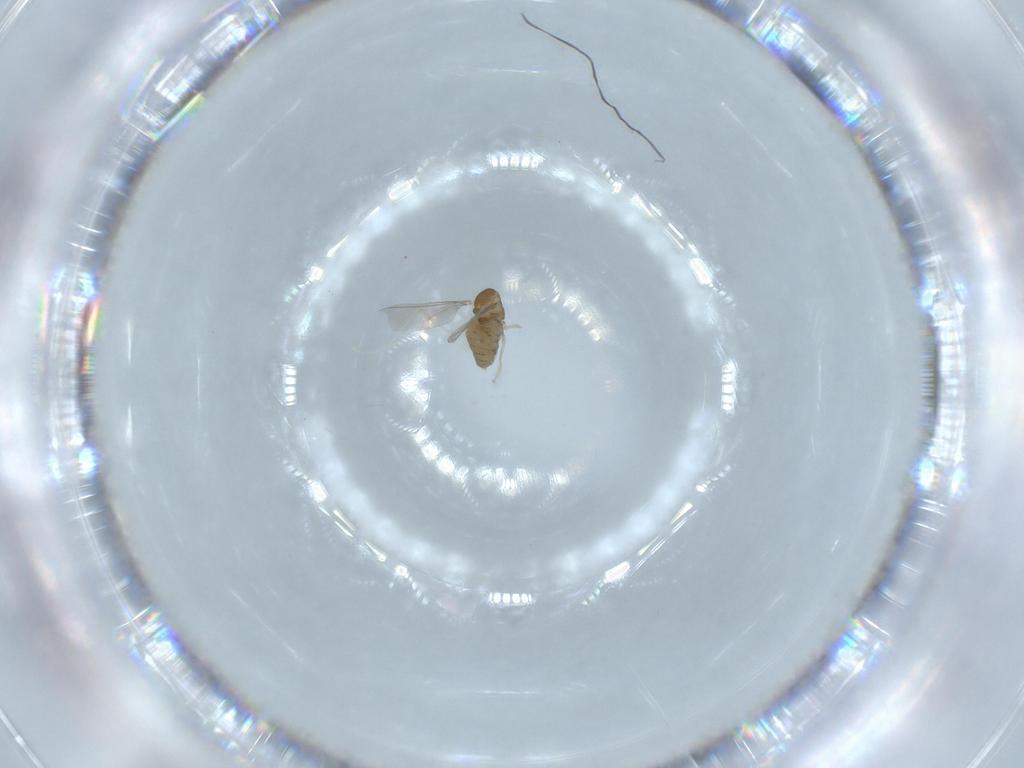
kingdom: Animalia
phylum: Arthropoda
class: Insecta
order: Diptera
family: Cecidomyiidae
